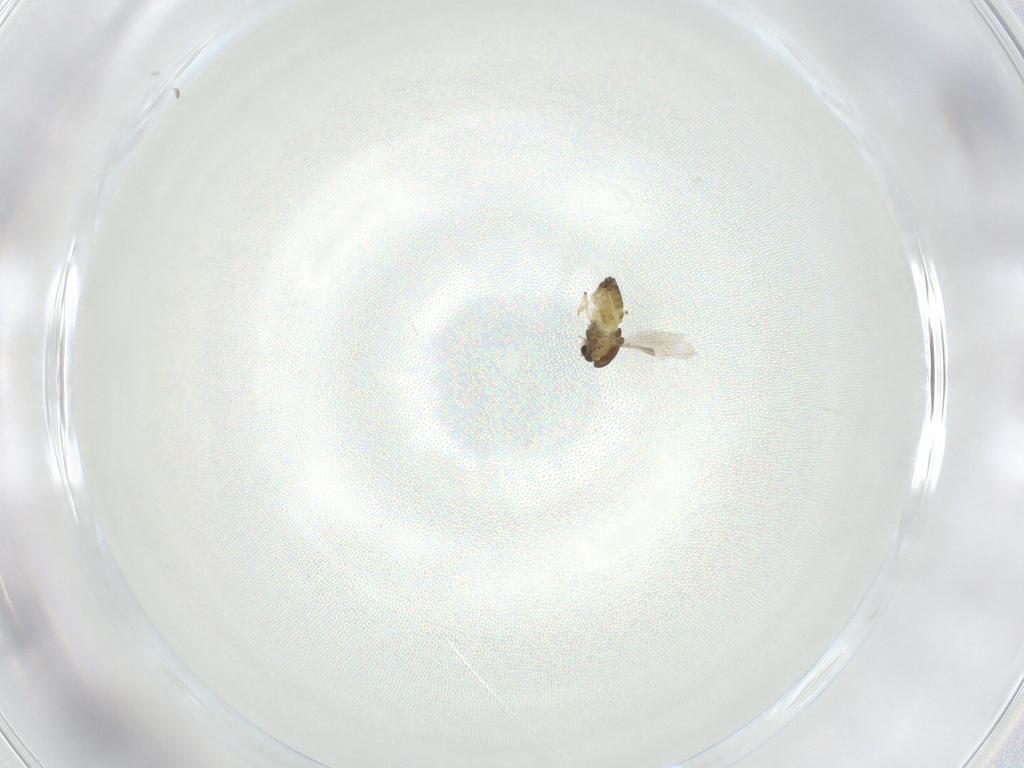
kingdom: Animalia
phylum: Arthropoda
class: Insecta
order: Diptera
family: Chironomidae
